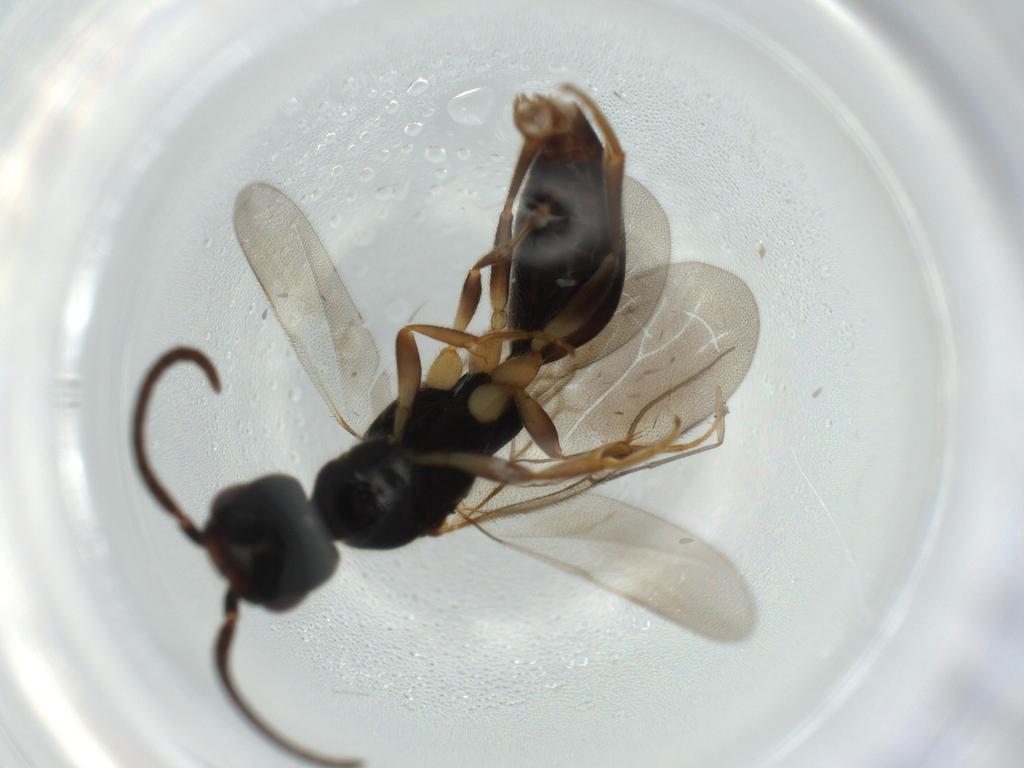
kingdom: Animalia
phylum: Arthropoda
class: Insecta
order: Hymenoptera
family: Bethylidae
